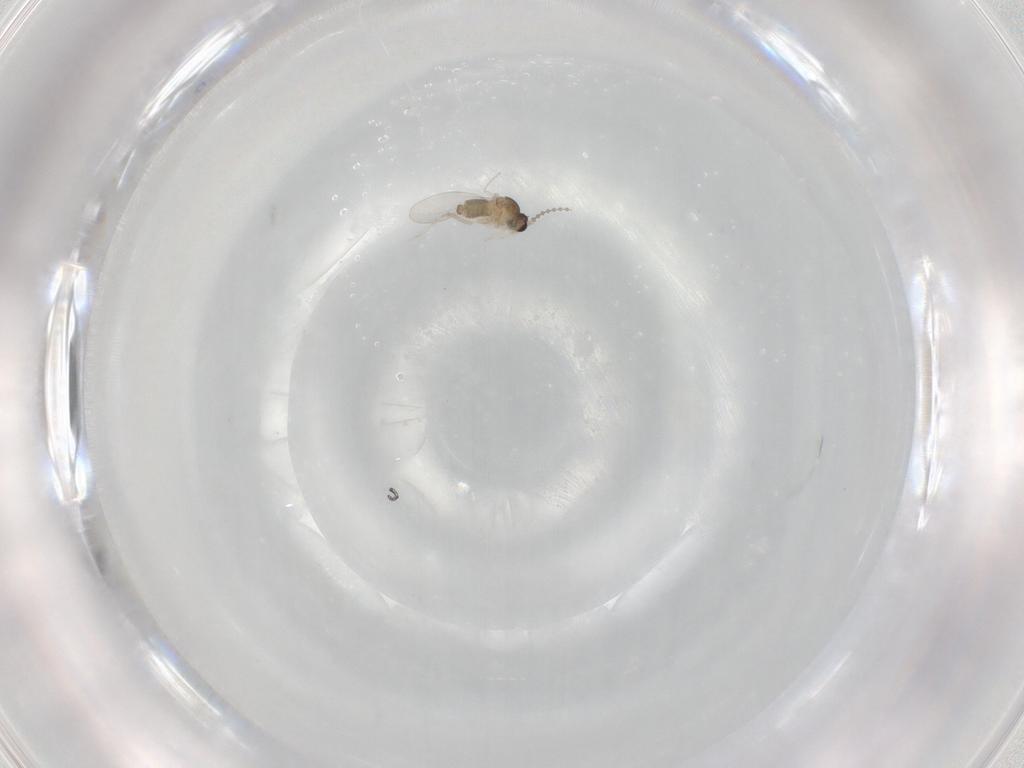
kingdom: Animalia
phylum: Arthropoda
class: Insecta
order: Diptera
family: Cecidomyiidae
